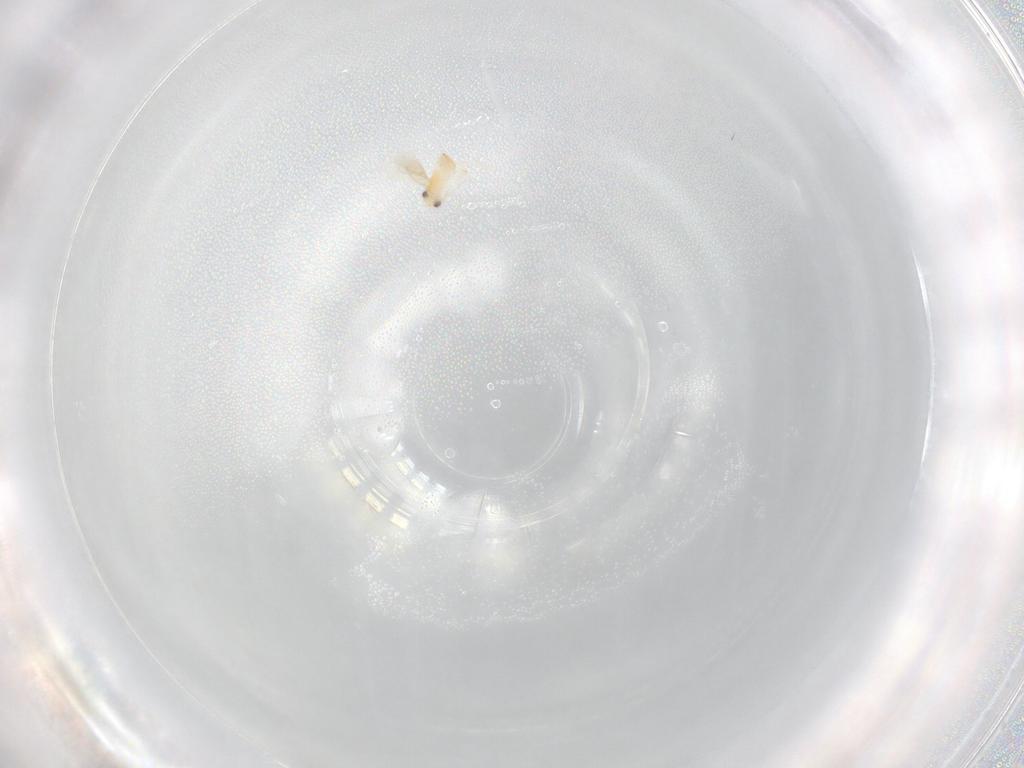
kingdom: Animalia
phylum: Arthropoda
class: Insecta
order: Hymenoptera
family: Aphelinidae
